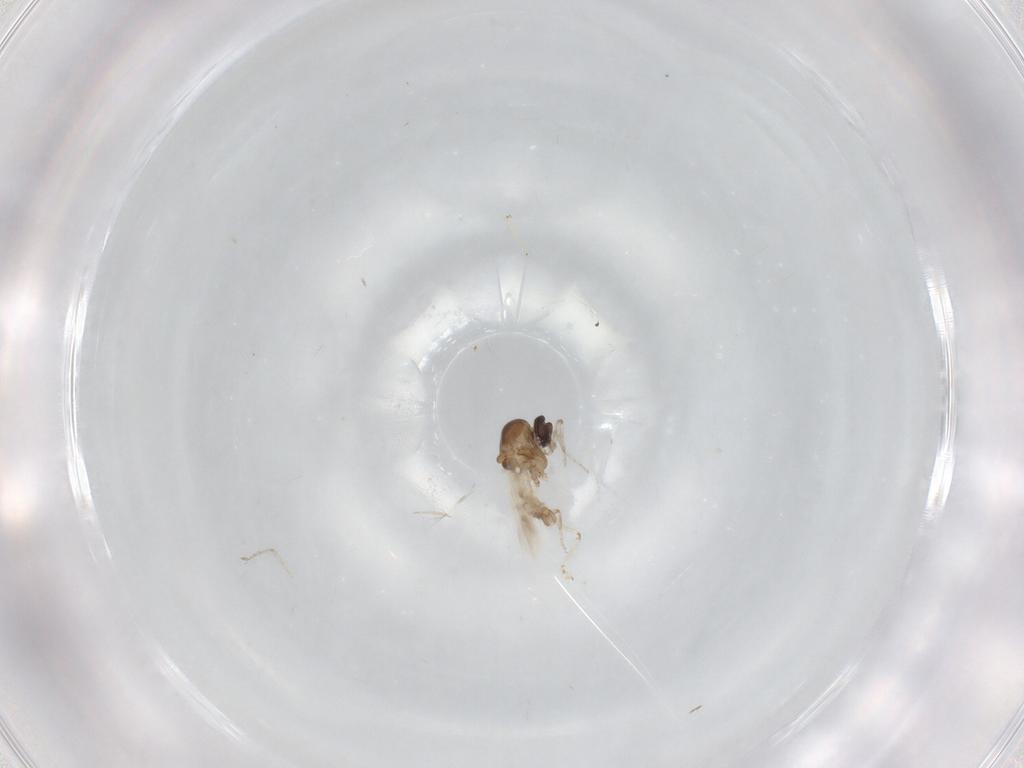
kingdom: Animalia
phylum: Arthropoda
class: Insecta
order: Diptera
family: Ceratopogonidae
